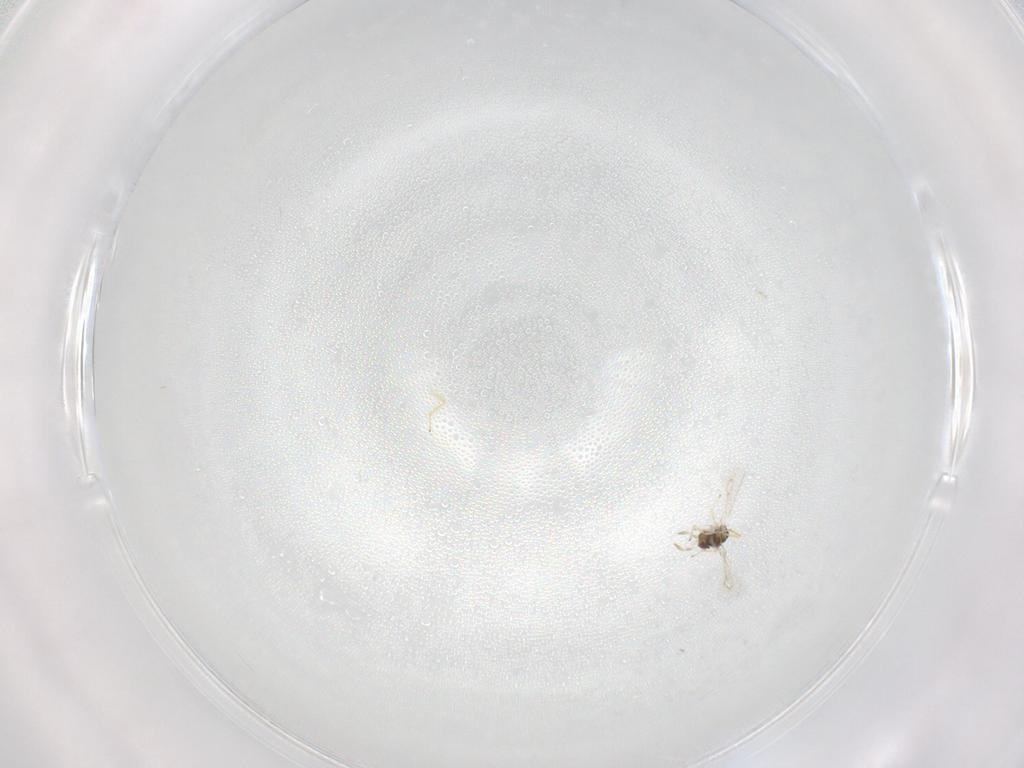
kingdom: Animalia
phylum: Arthropoda
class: Insecta
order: Hymenoptera
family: Eulophidae
